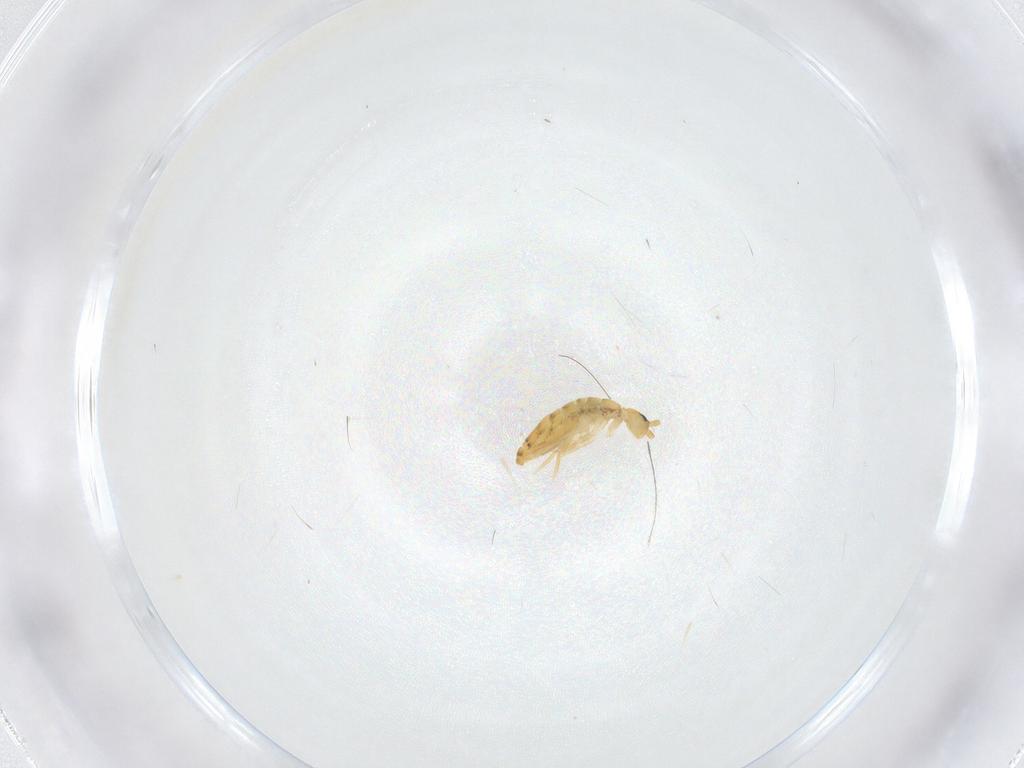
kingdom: Animalia
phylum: Arthropoda
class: Collembola
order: Entomobryomorpha
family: Entomobryidae
